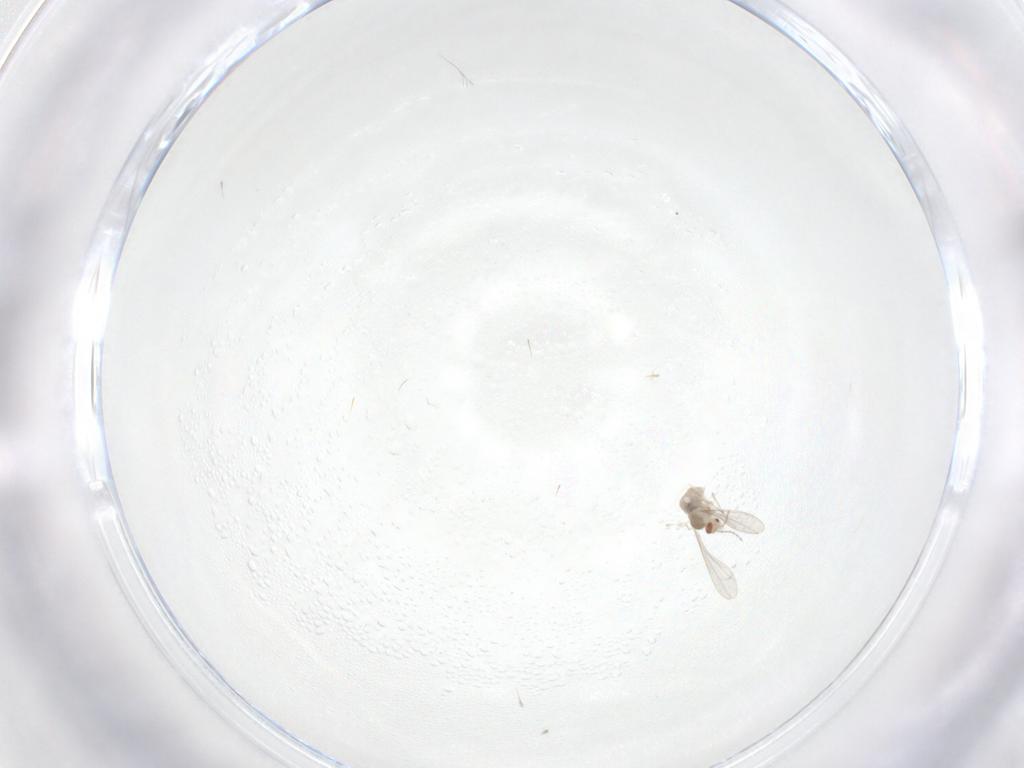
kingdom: Animalia
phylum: Arthropoda
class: Insecta
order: Diptera
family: Cecidomyiidae
